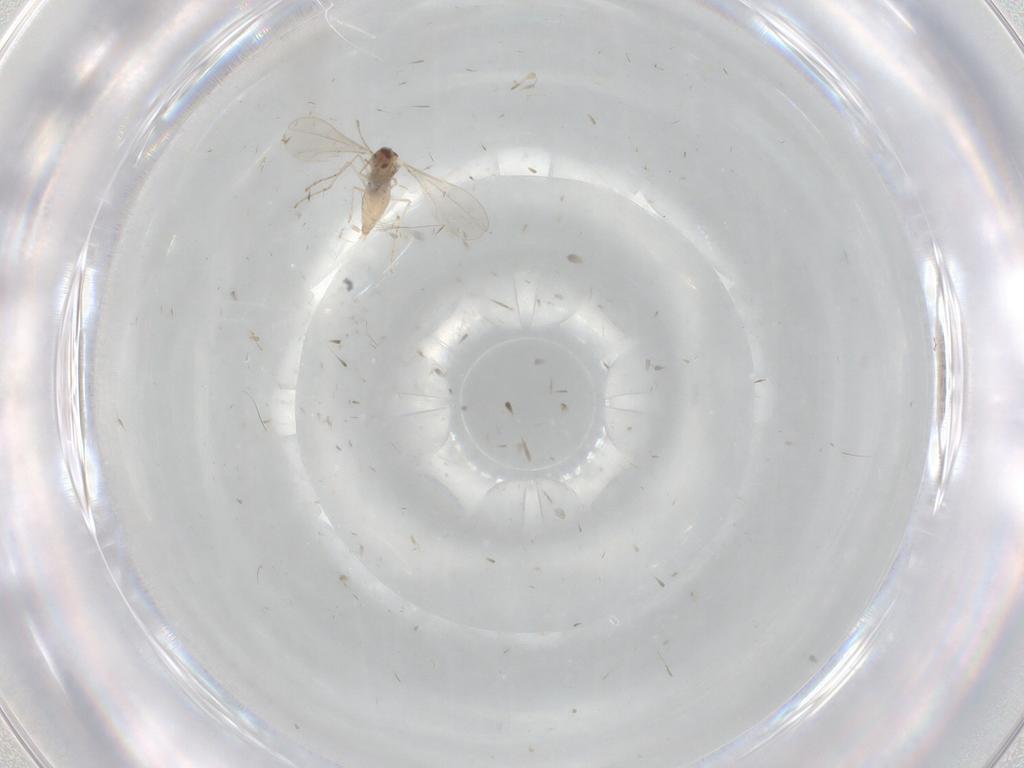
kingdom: Animalia
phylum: Arthropoda
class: Insecta
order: Diptera
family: Cecidomyiidae
